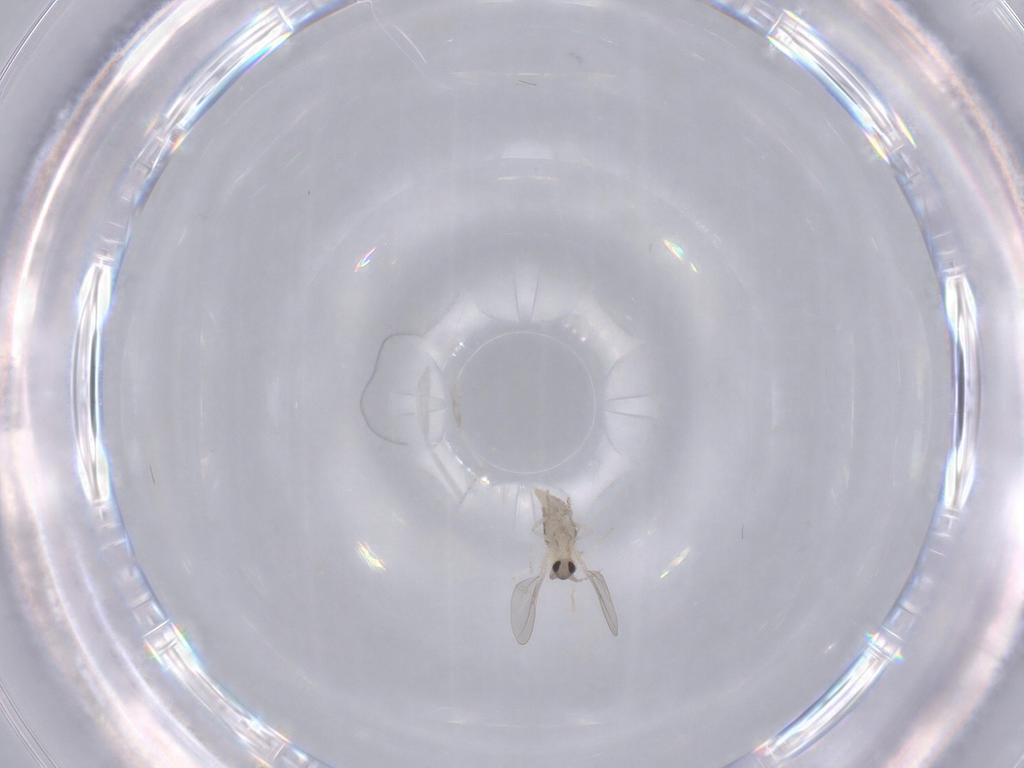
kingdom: Animalia
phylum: Arthropoda
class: Insecta
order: Diptera
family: Cecidomyiidae
